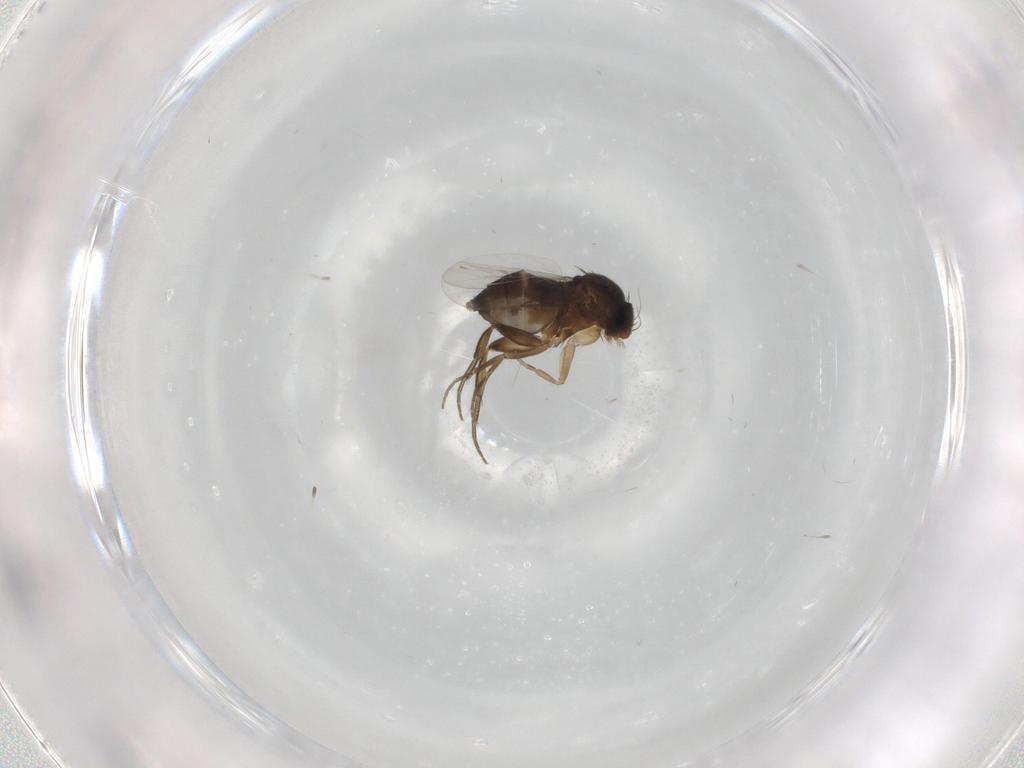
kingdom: Animalia
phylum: Arthropoda
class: Insecta
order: Diptera
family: Phoridae
